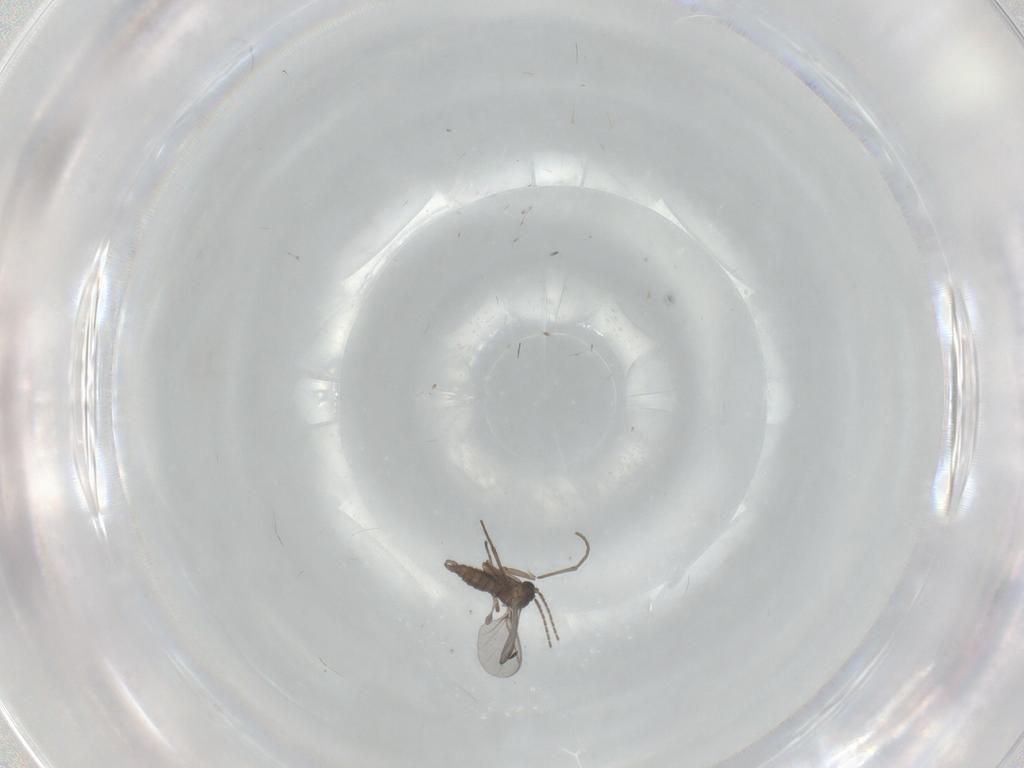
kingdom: Animalia
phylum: Arthropoda
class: Insecta
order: Diptera
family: Sciaridae
